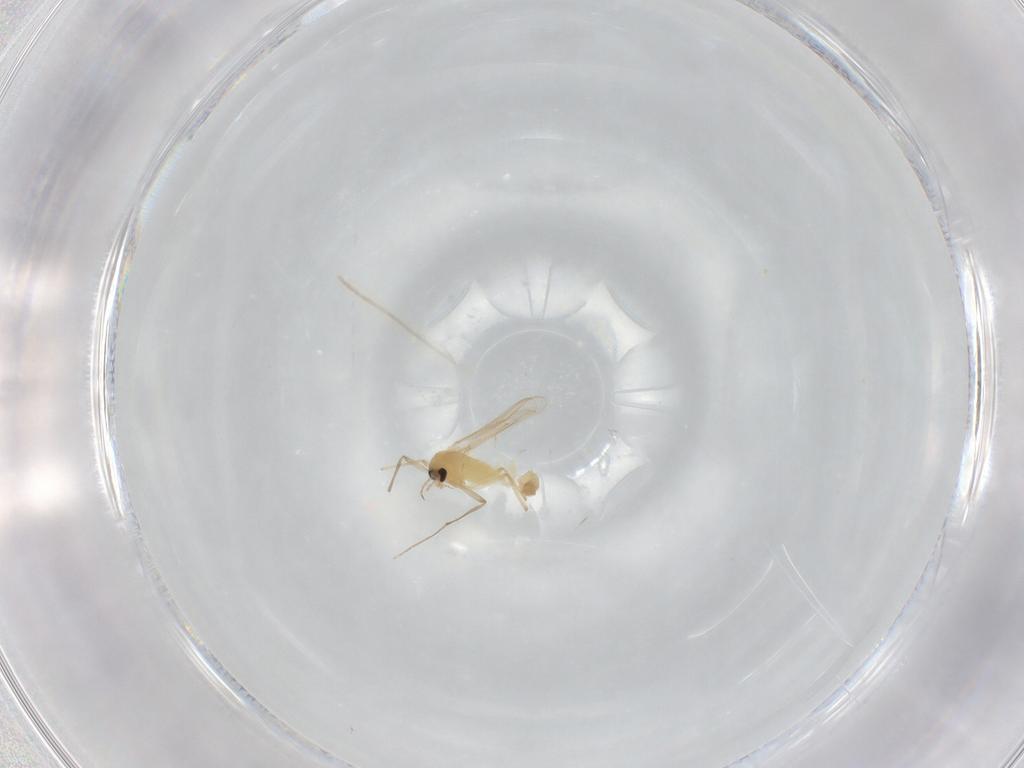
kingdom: Animalia
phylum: Arthropoda
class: Insecta
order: Diptera
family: Chironomidae
